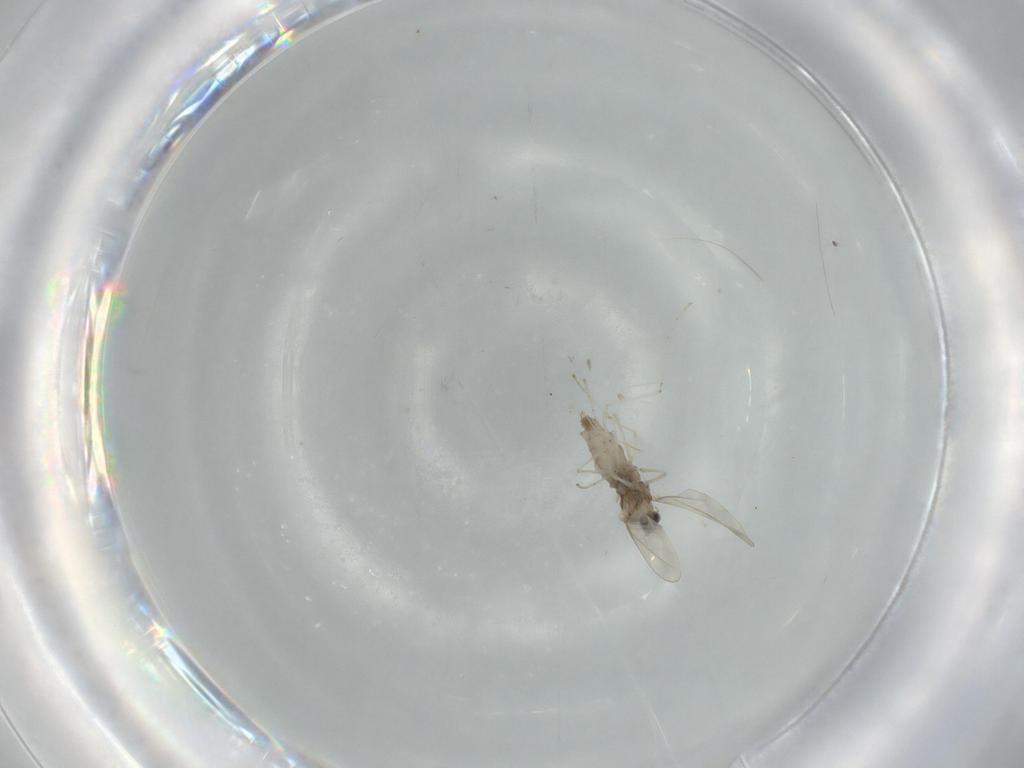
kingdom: Animalia
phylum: Arthropoda
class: Insecta
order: Diptera
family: Cecidomyiidae
